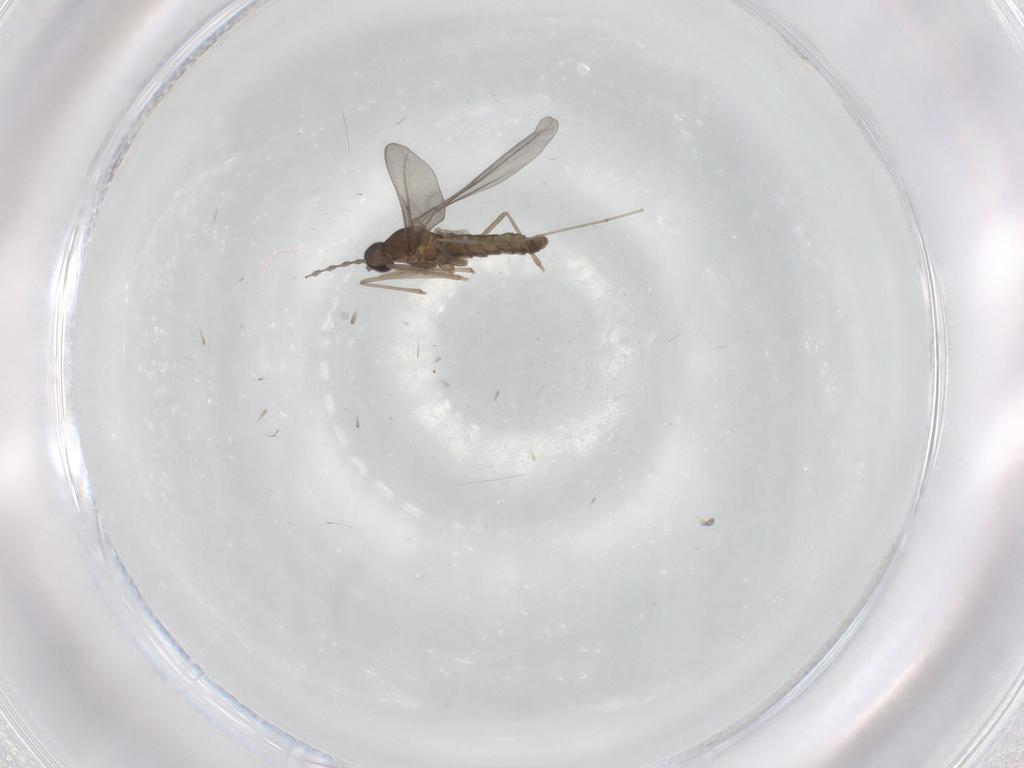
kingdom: Animalia
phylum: Arthropoda
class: Insecta
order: Diptera
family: Cecidomyiidae
